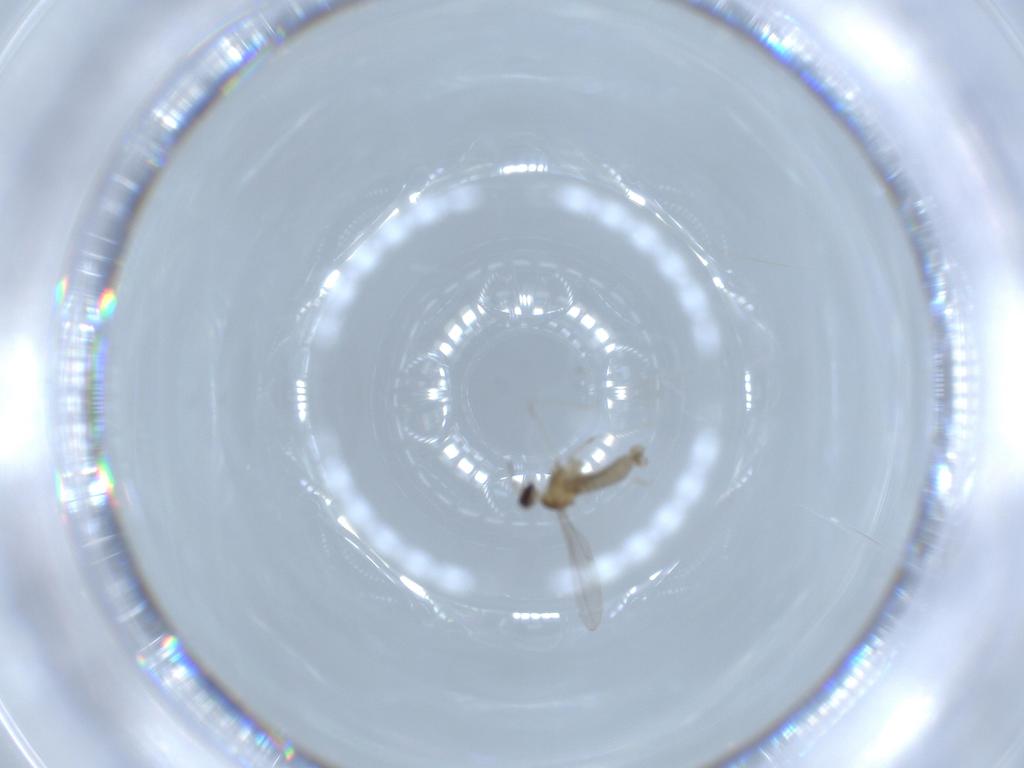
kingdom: Animalia
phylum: Arthropoda
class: Insecta
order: Diptera
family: Cecidomyiidae
